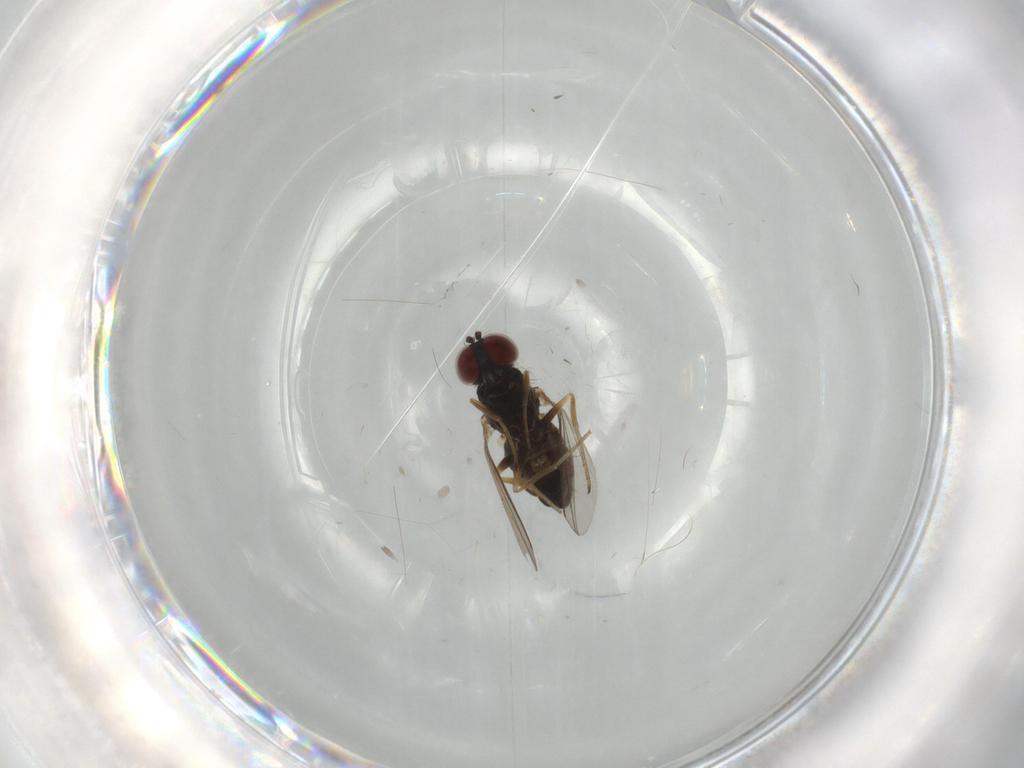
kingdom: Animalia
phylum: Arthropoda
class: Insecta
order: Diptera
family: Dolichopodidae
